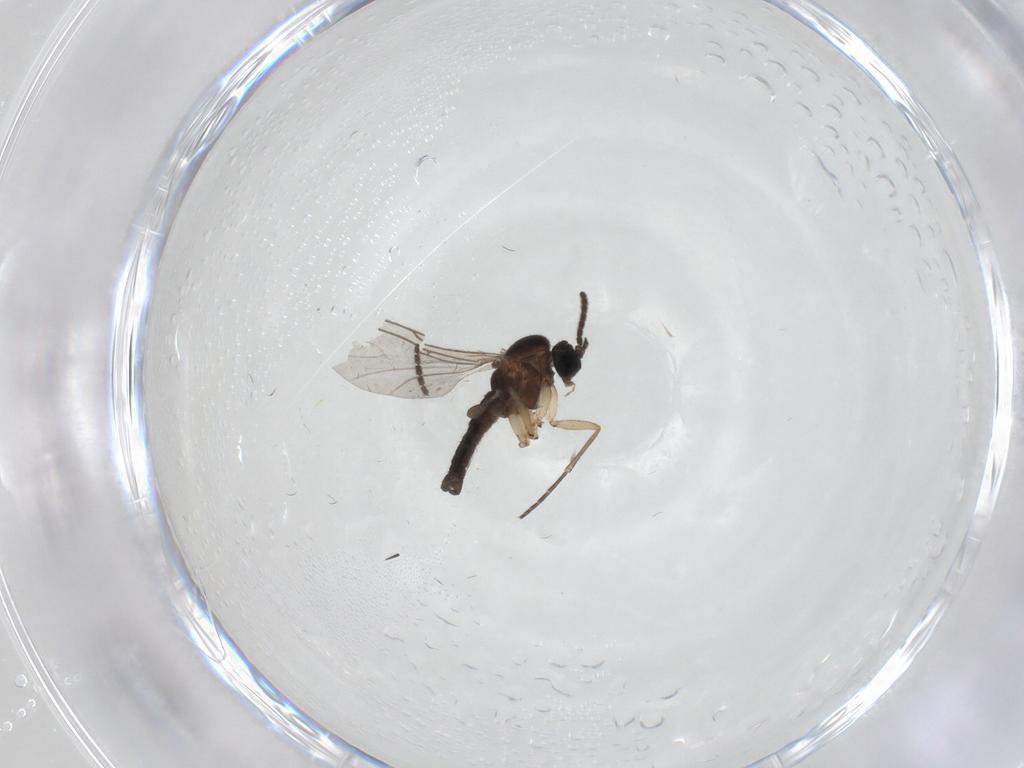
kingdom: Animalia
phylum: Arthropoda
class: Insecta
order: Diptera
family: Sciaridae
